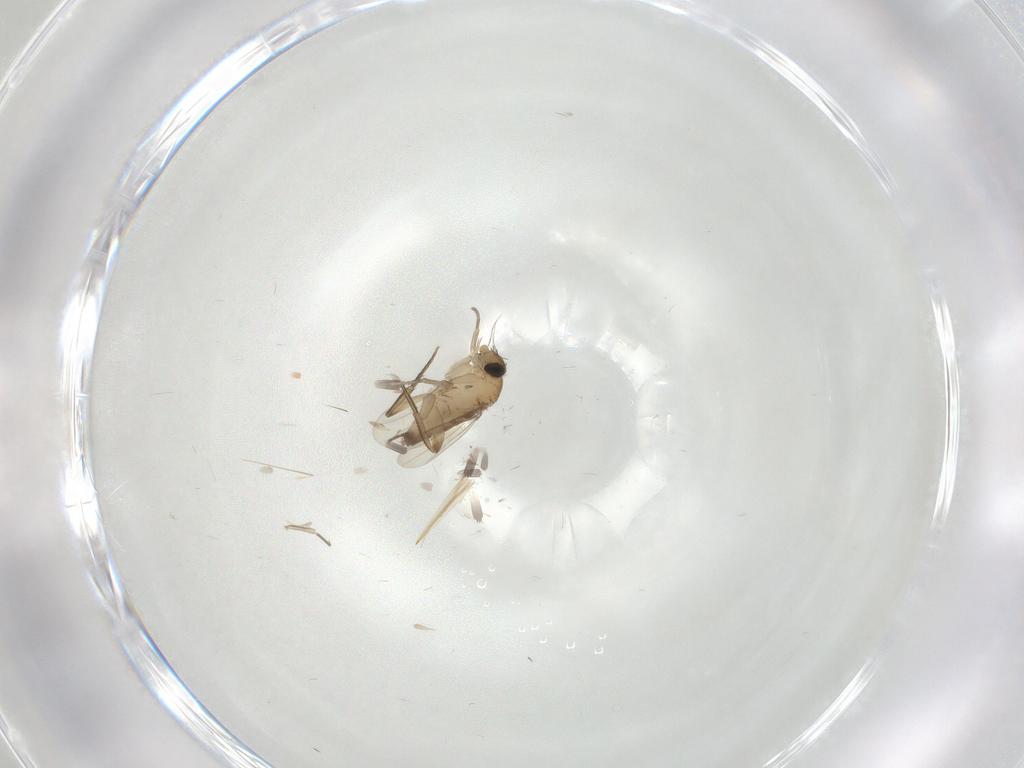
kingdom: Animalia
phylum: Arthropoda
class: Insecta
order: Diptera
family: Phoridae
